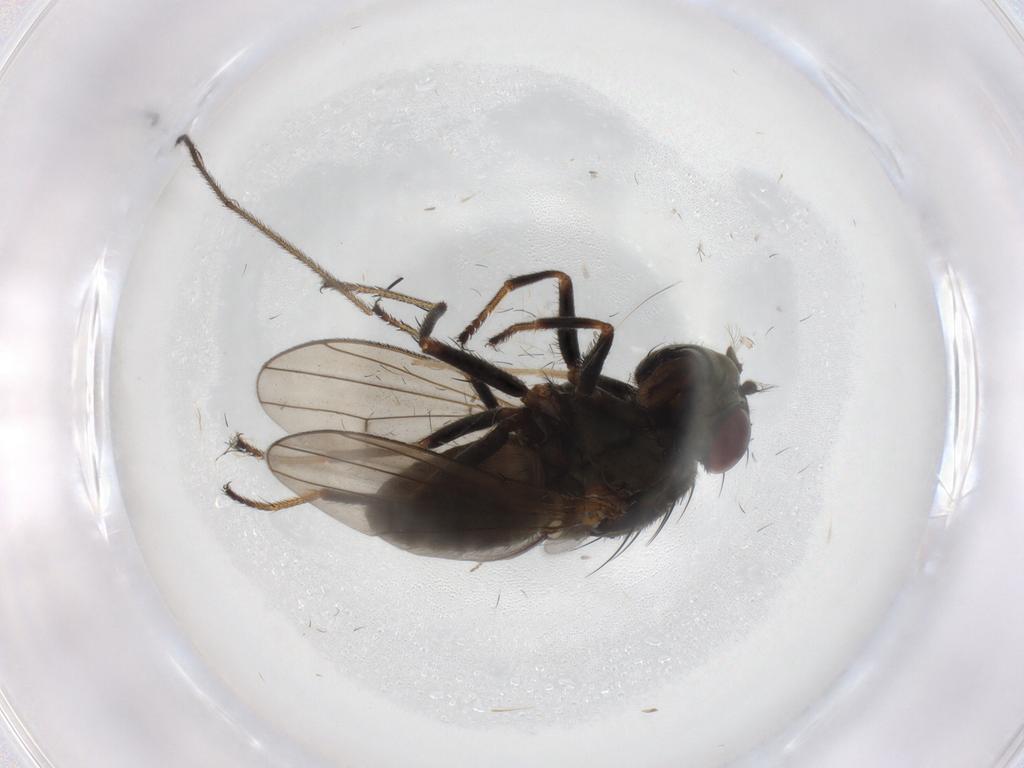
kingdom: Animalia
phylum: Arthropoda
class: Insecta
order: Diptera
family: Ephydridae
